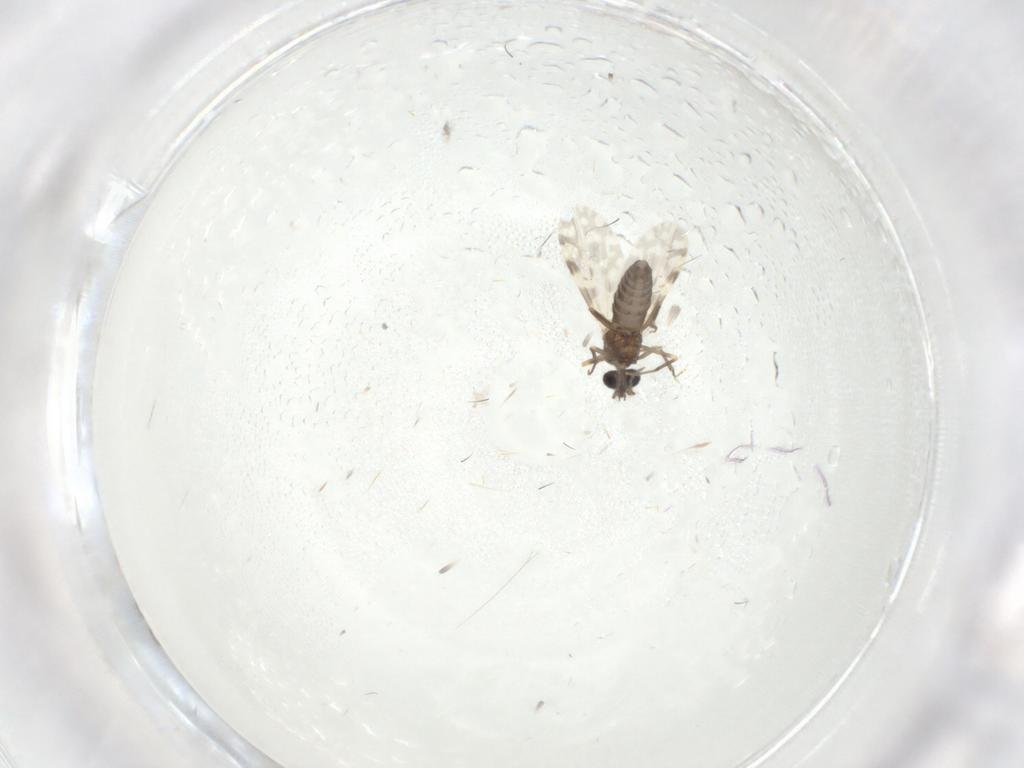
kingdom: Animalia
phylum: Arthropoda
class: Insecta
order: Diptera
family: Ceratopogonidae
